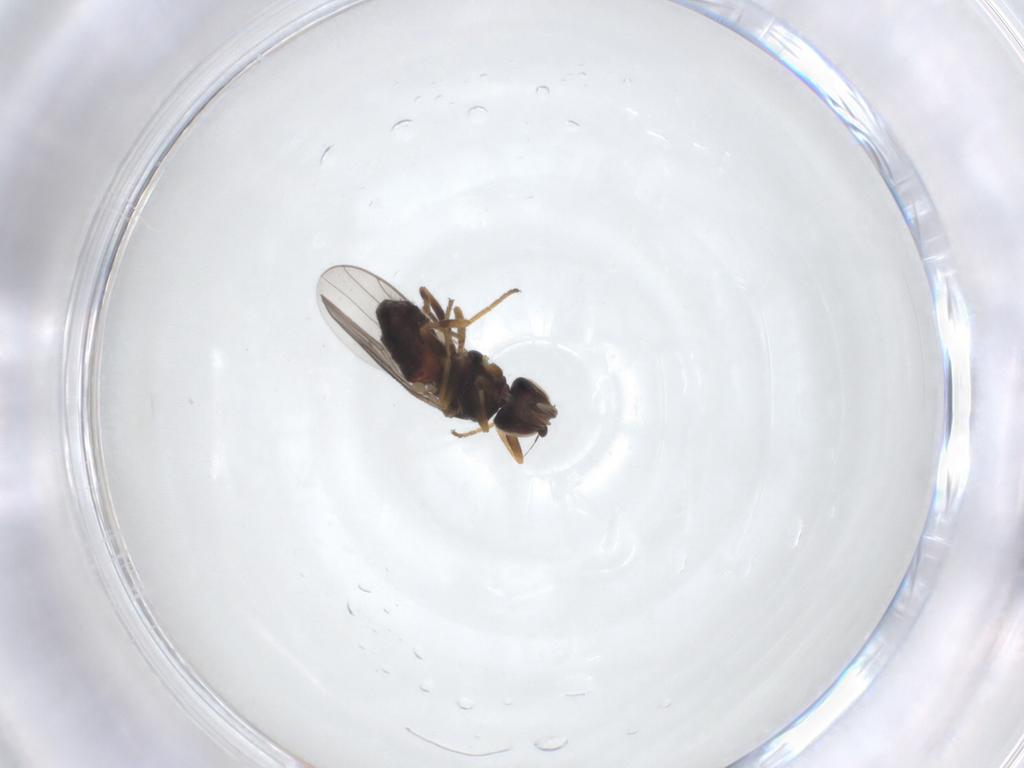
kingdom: Animalia
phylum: Arthropoda
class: Insecta
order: Diptera
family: Chloropidae
